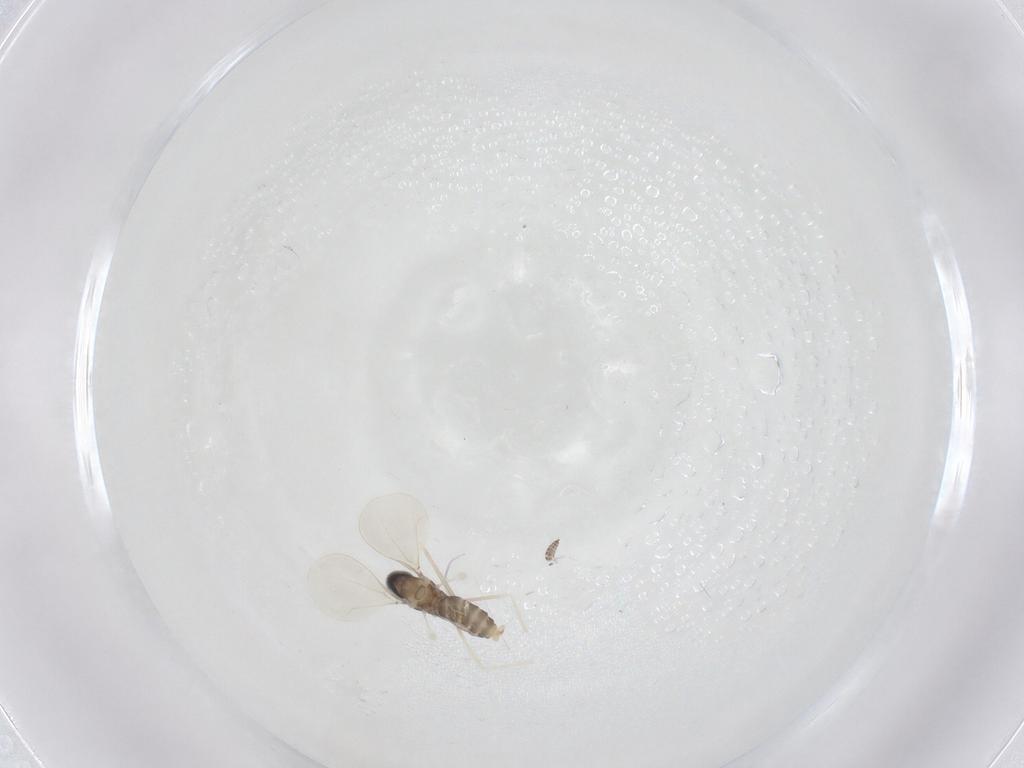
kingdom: Animalia
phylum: Arthropoda
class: Insecta
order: Diptera
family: Cecidomyiidae
